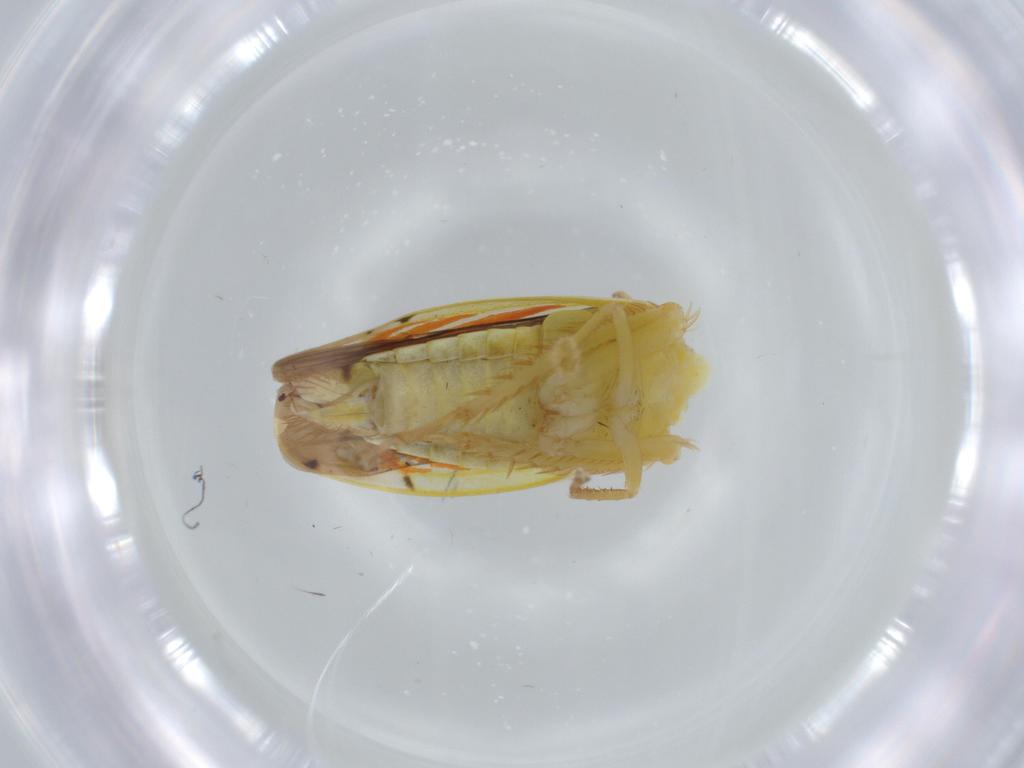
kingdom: Animalia
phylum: Arthropoda
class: Insecta
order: Hemiptera
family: Cicadellidae
